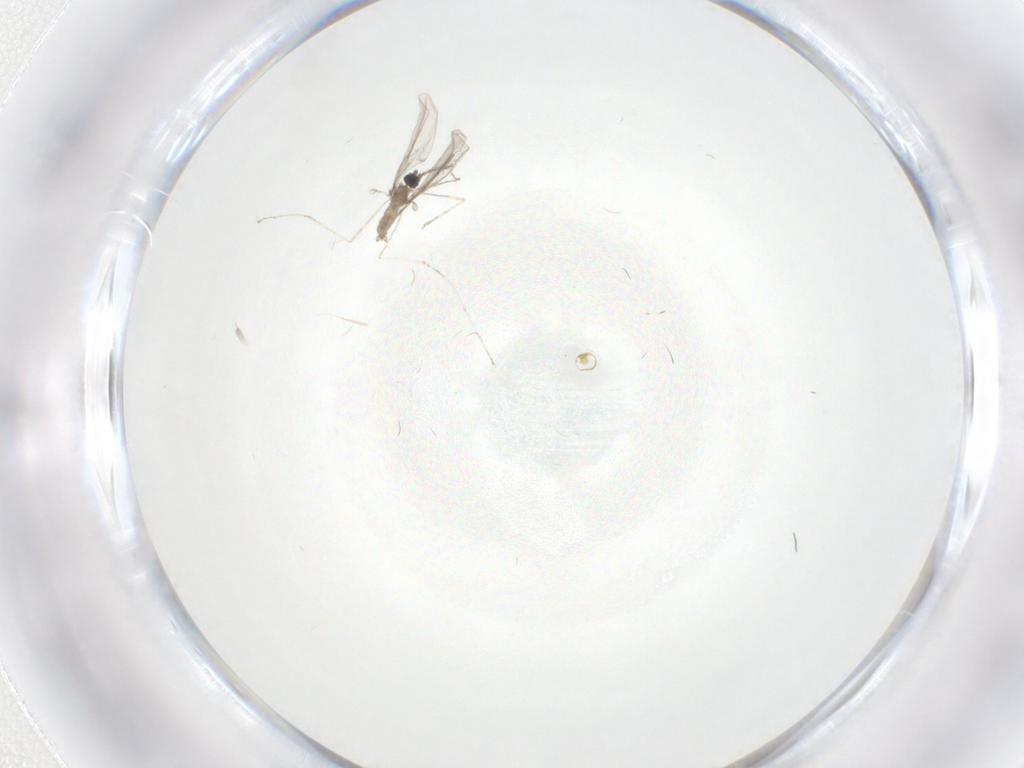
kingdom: Animalia
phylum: Arthropoda
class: Insecta
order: Diptera
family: Cecidomyiidae
